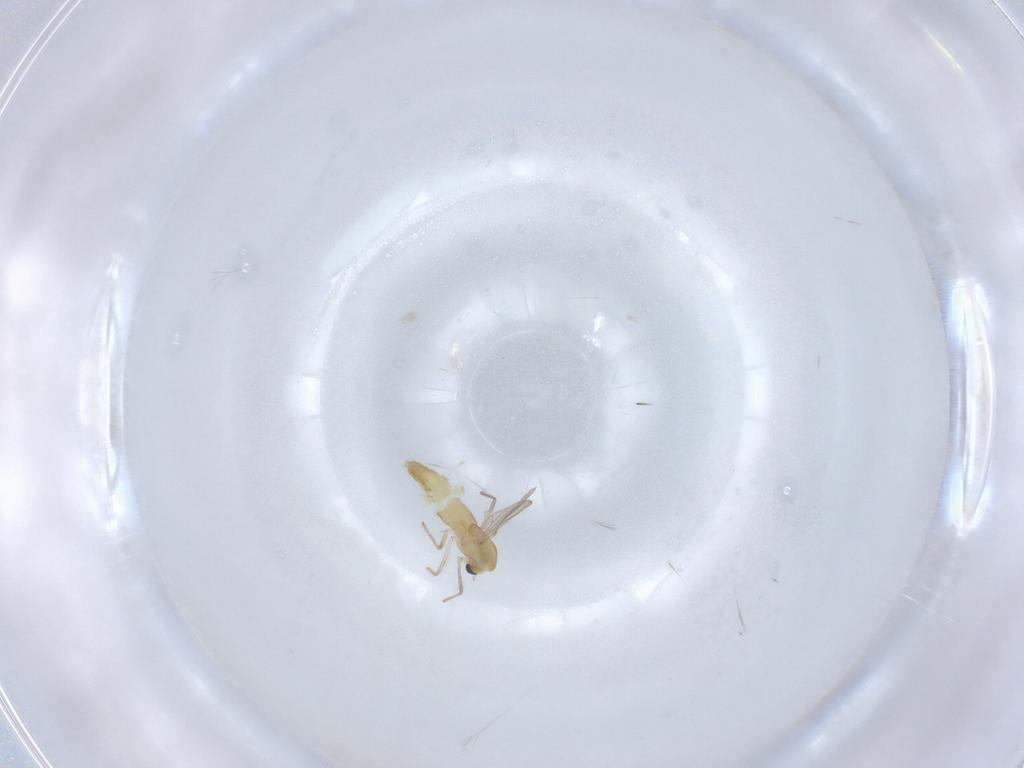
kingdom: Animalia
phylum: Arthropoda
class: Insecta
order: Diptera
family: Chironomidae
